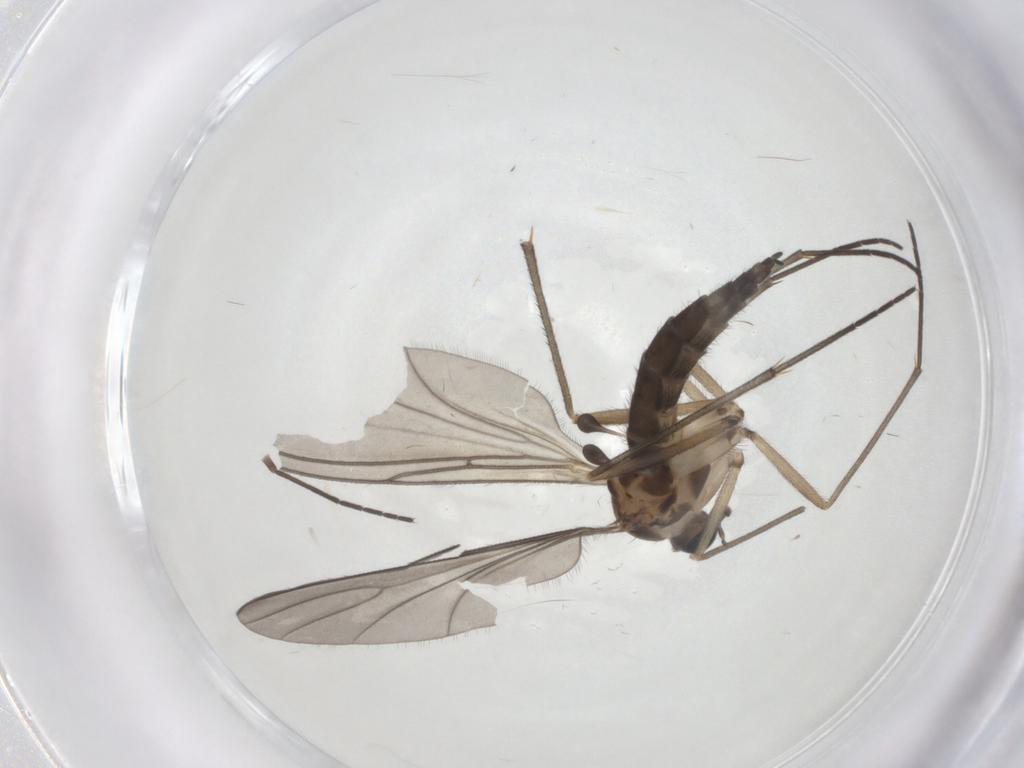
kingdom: Animalia
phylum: Arthropoda
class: Insecta
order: Diptera
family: Sciaridae
